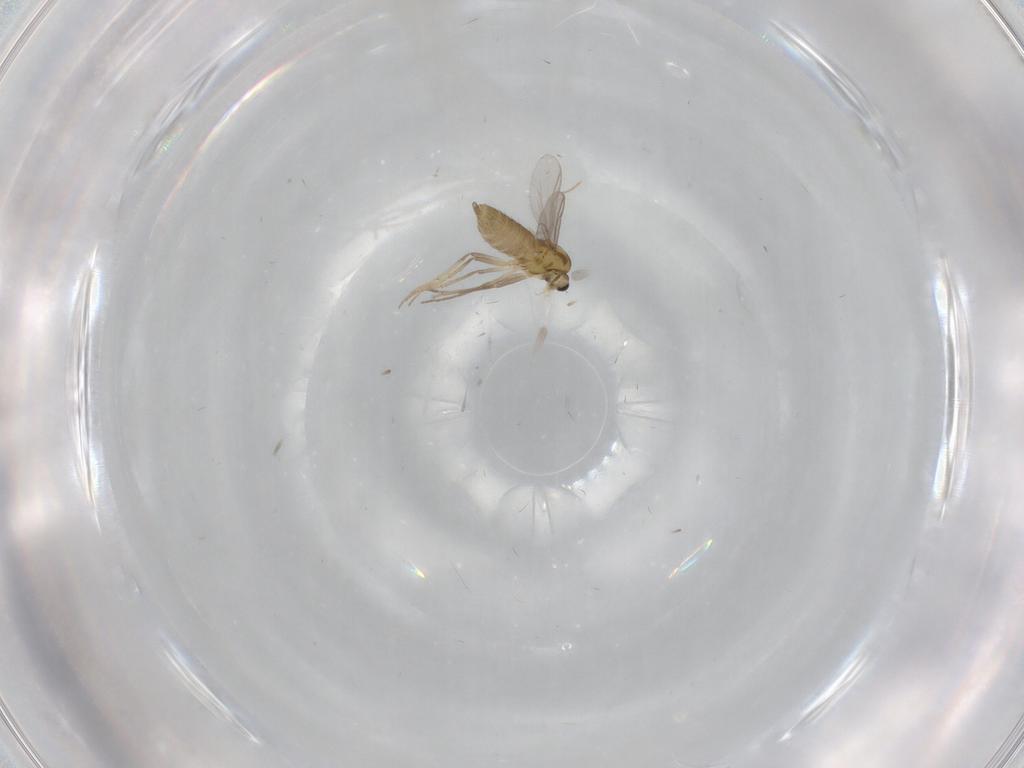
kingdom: Animalia
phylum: Arthropoda
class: Insecta
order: Diptera
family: Chironomidae
